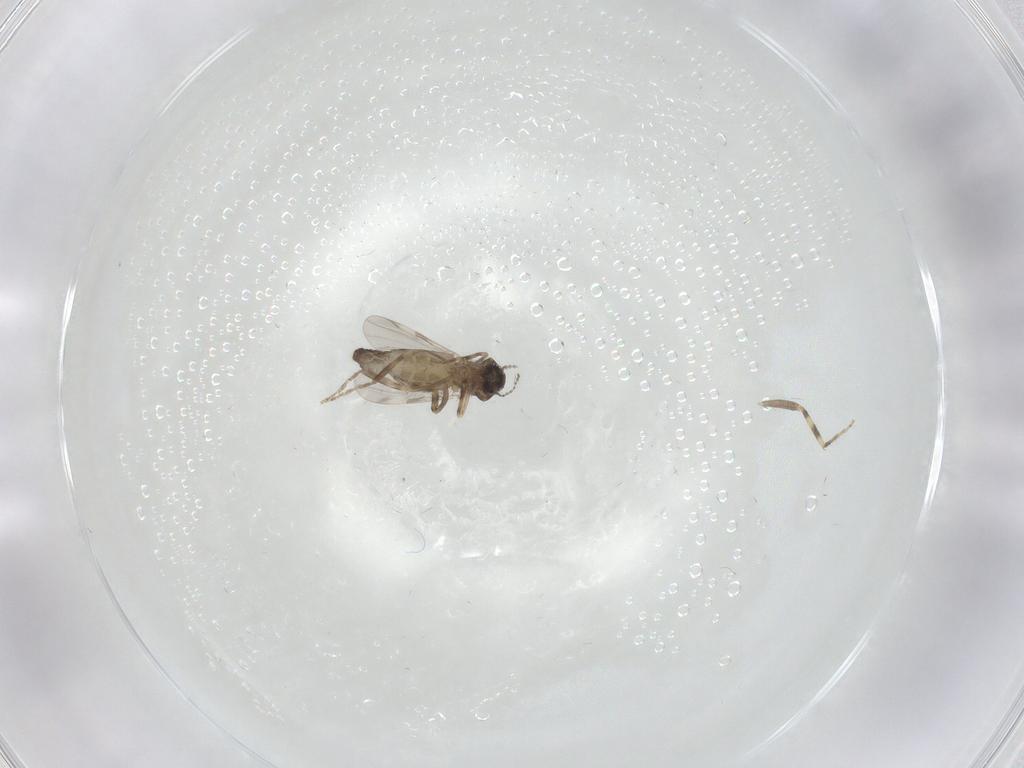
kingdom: Animalia
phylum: Arthropoda
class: Insecta
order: Diptera
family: Ceratopogonidae
